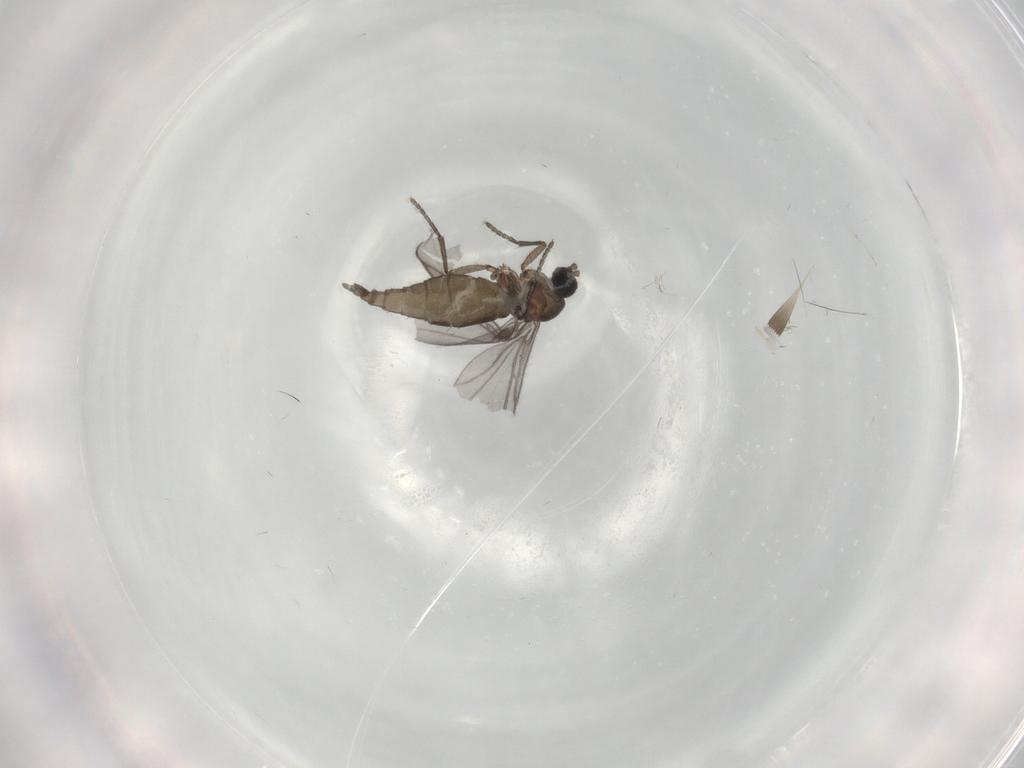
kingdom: Animalia
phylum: Arthropoda
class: Insecta
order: Diptera
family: Sciaridae
